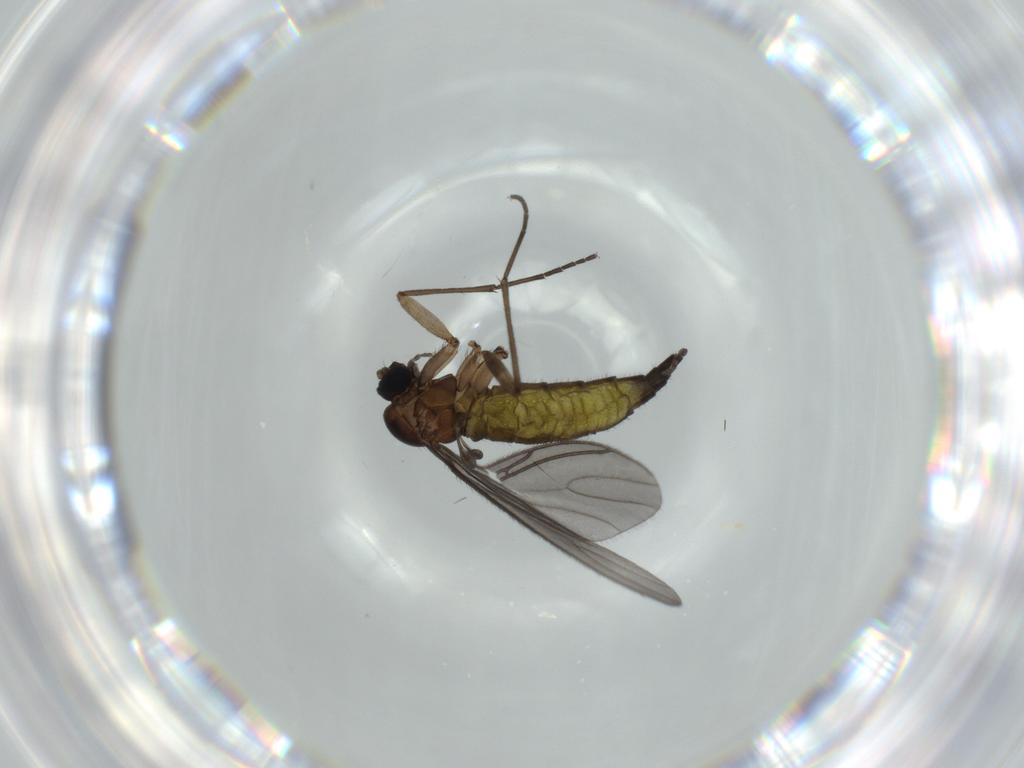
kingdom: Animalia
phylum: Arthropoda
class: Insecta
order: Diptera
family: Sciaridae
